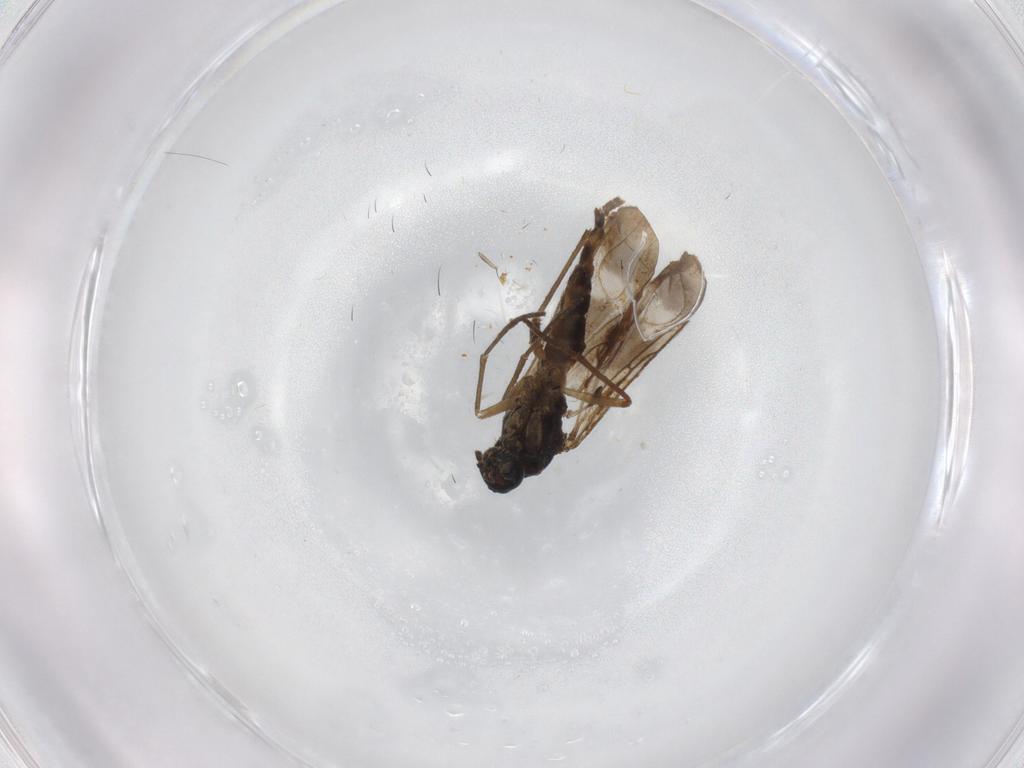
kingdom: Animalia
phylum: Arthropoda
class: Insecta
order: Diptera
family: Limoniidae
